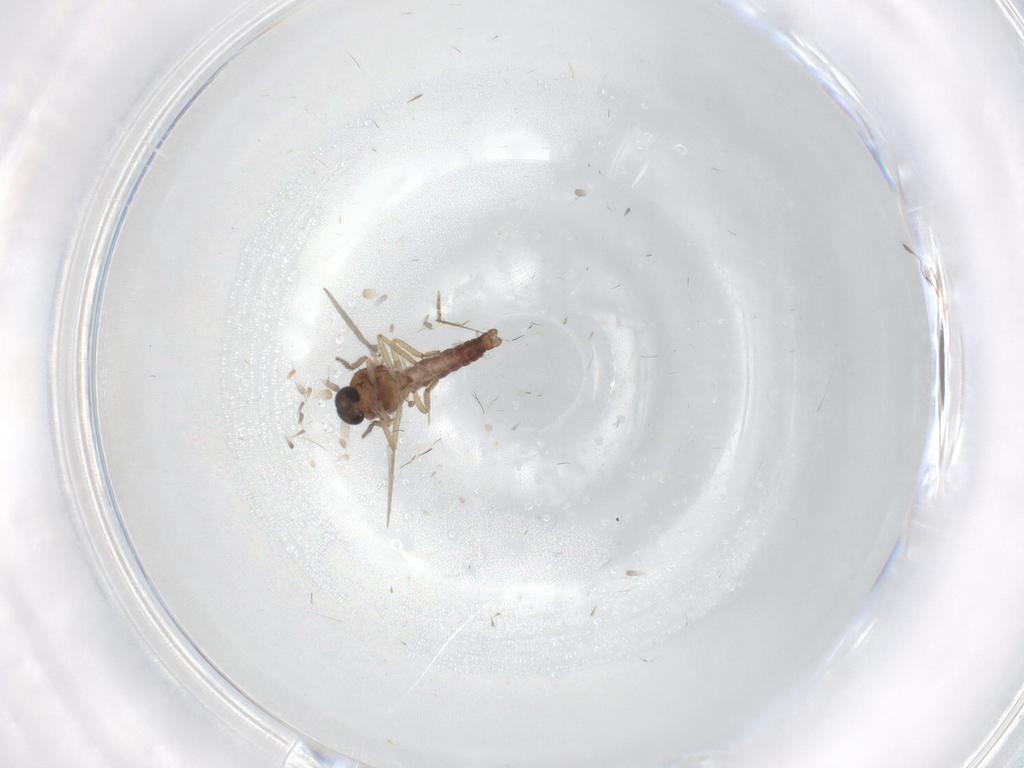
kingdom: Animalia
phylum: Arthropoda
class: Insecta
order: Diptera
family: Ceratopogonidae
